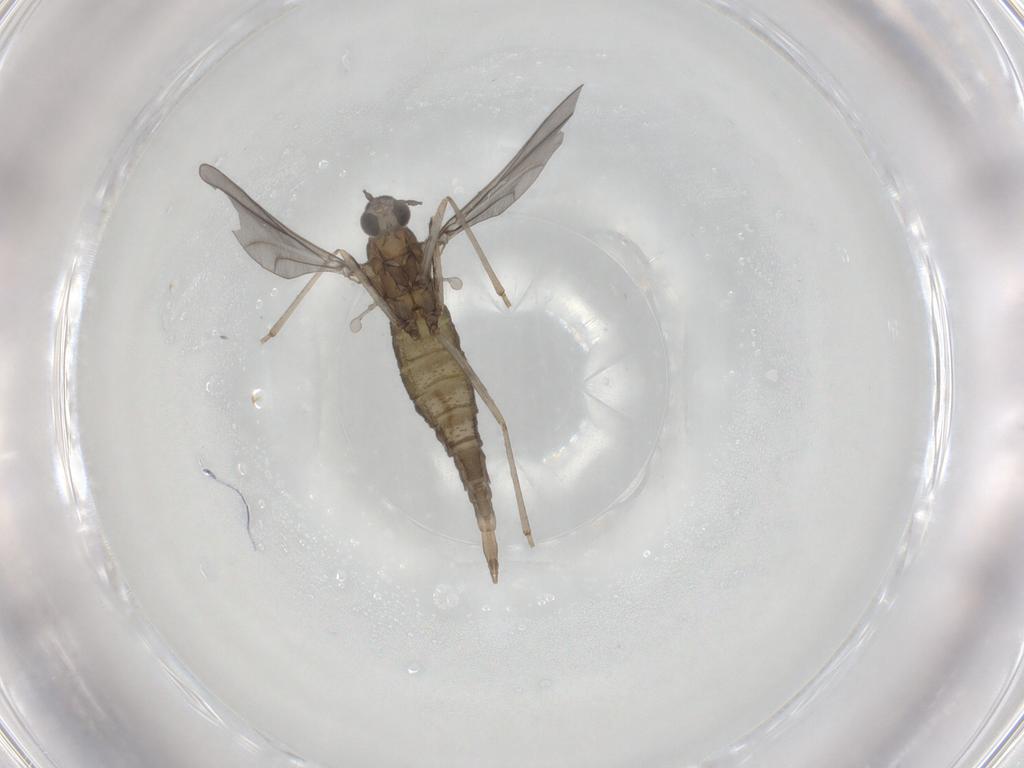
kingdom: Animalia
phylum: Arthropoda
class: Insecta
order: Diptera
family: Cecidomyiidae
